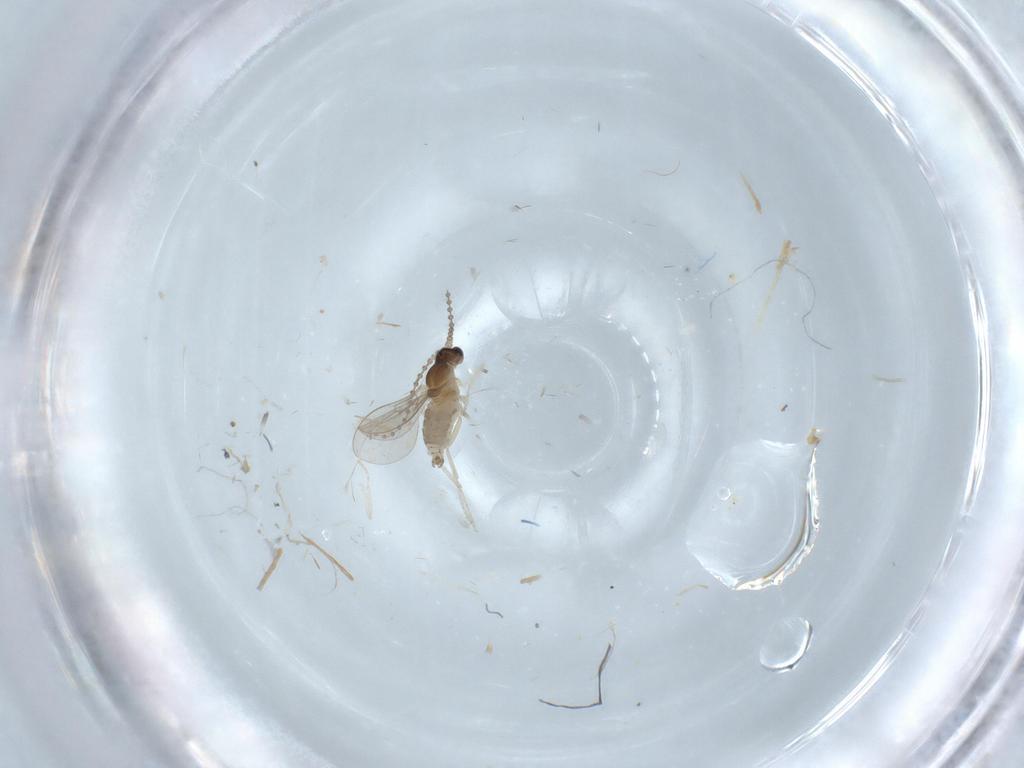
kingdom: Animalia
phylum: Arthropoda
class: Insecta
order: Diptera
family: Cecidomyiidae
